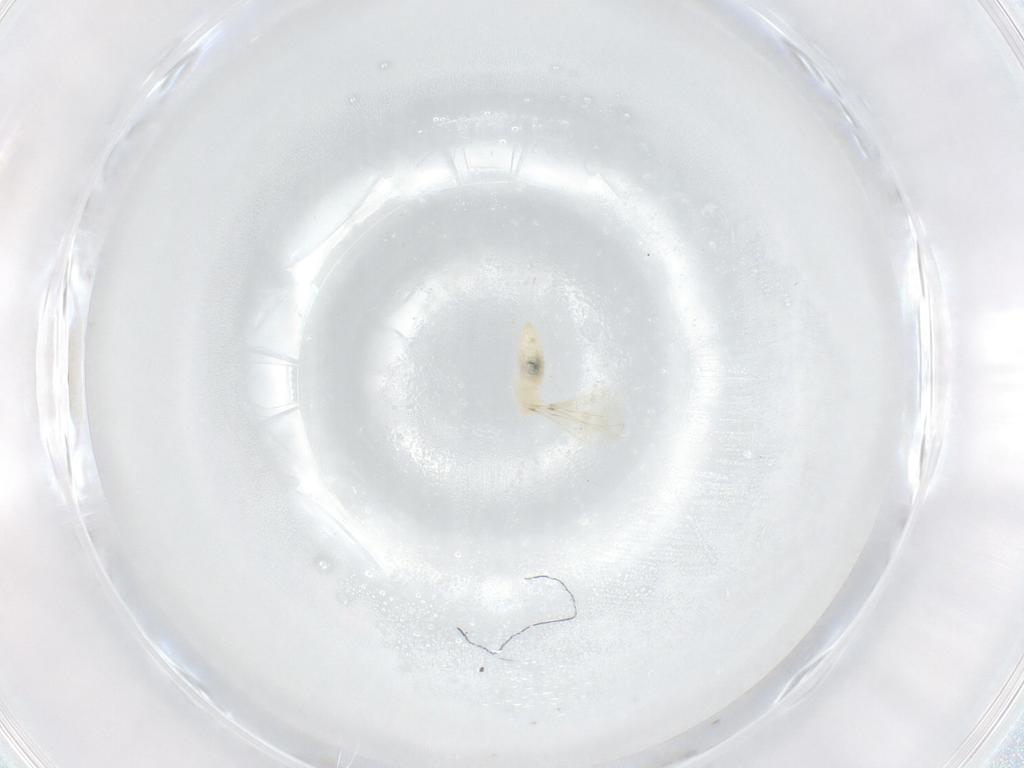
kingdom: Animalia
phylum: Arthropoda
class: Insecta
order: Diptera
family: Cecidomyiidae
